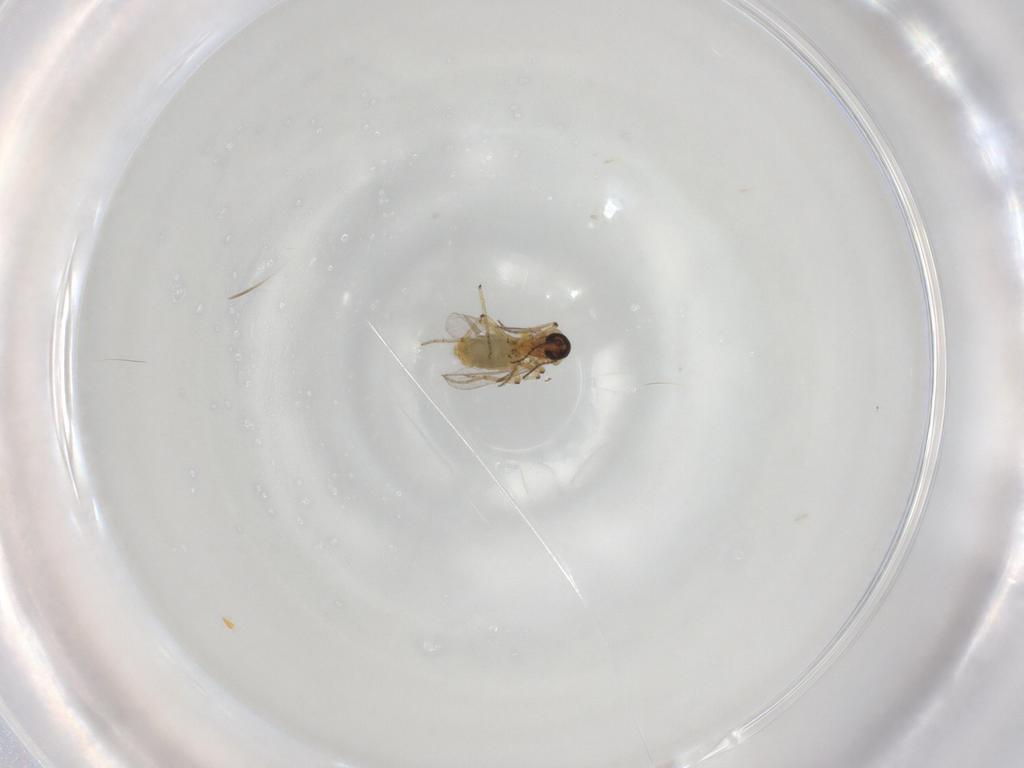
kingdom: Animalia
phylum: Arthropoda
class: Insecta
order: Diptera
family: Ceratopogonidae
